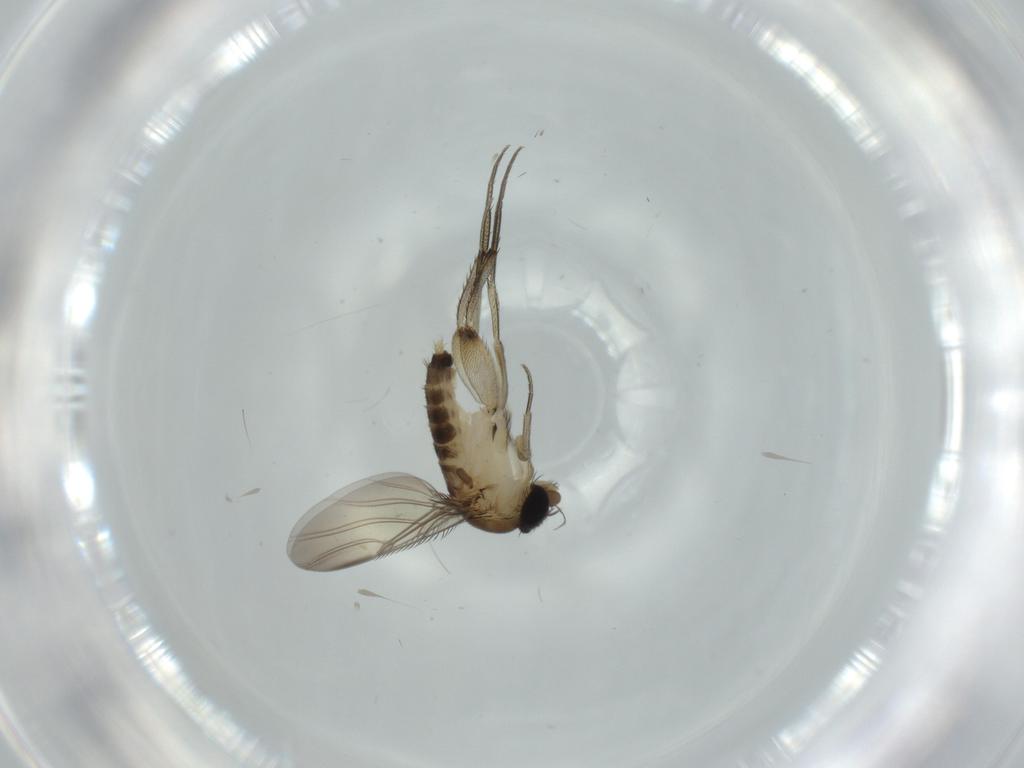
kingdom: Animalia
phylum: Arthropoda
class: Insecta
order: Diptera
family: Phoridae
